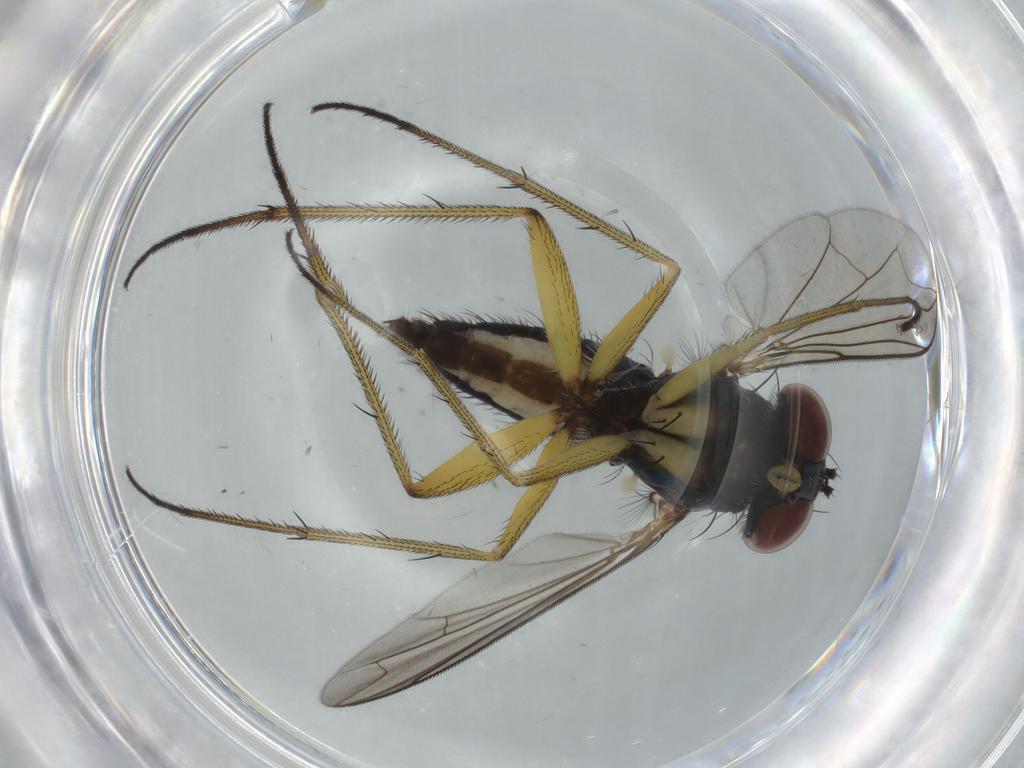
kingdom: Animalia
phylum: Arthropoda
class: Insecta
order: Diptera
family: Dolichopodidae
